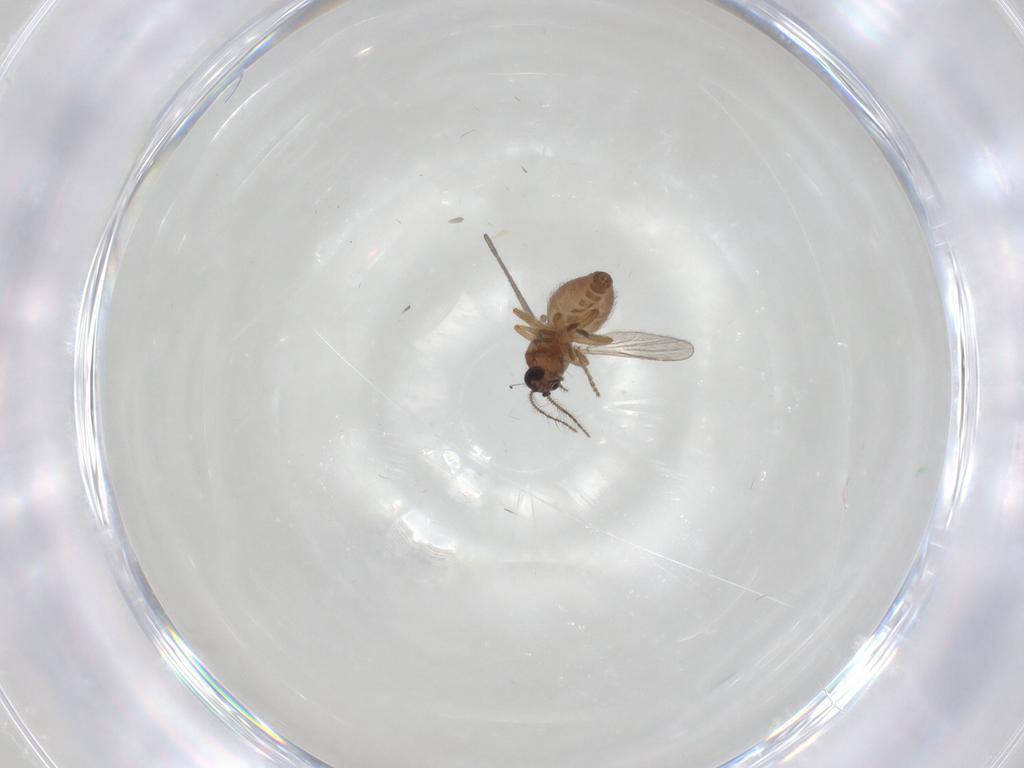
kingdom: Animalia
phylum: Arthropoda
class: Insecta
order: Diptera
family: Ceratopogonidae
